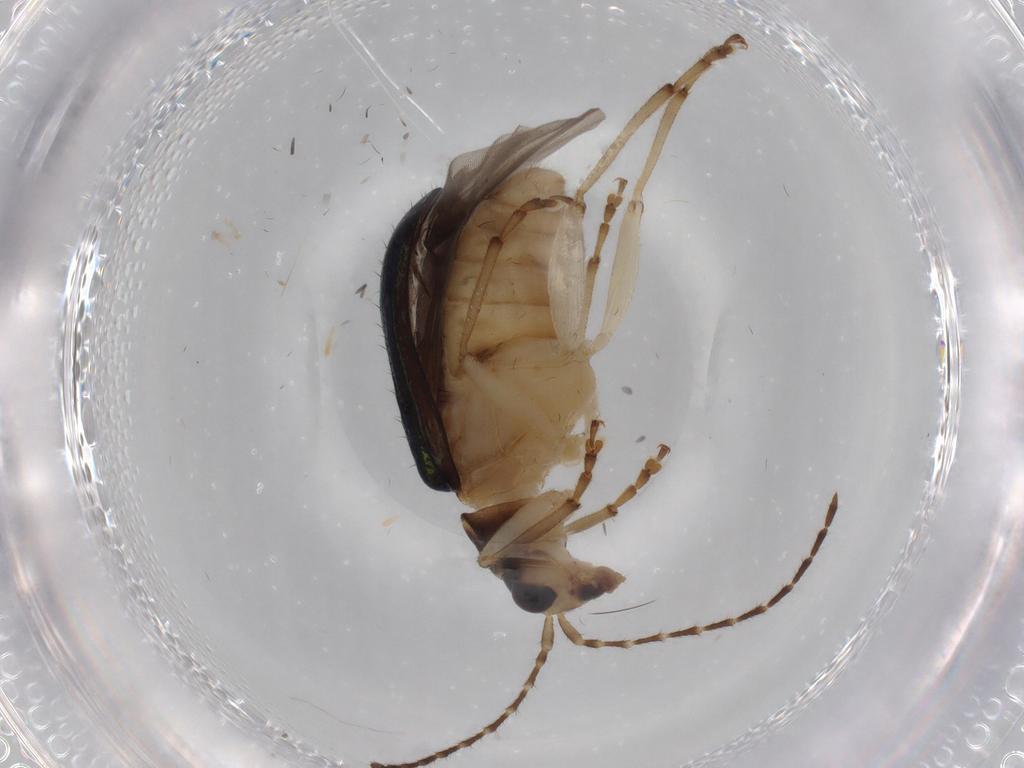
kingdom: Animalia
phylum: Arthropoda
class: Insecta
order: Coleoptera
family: Chrysomelidae
